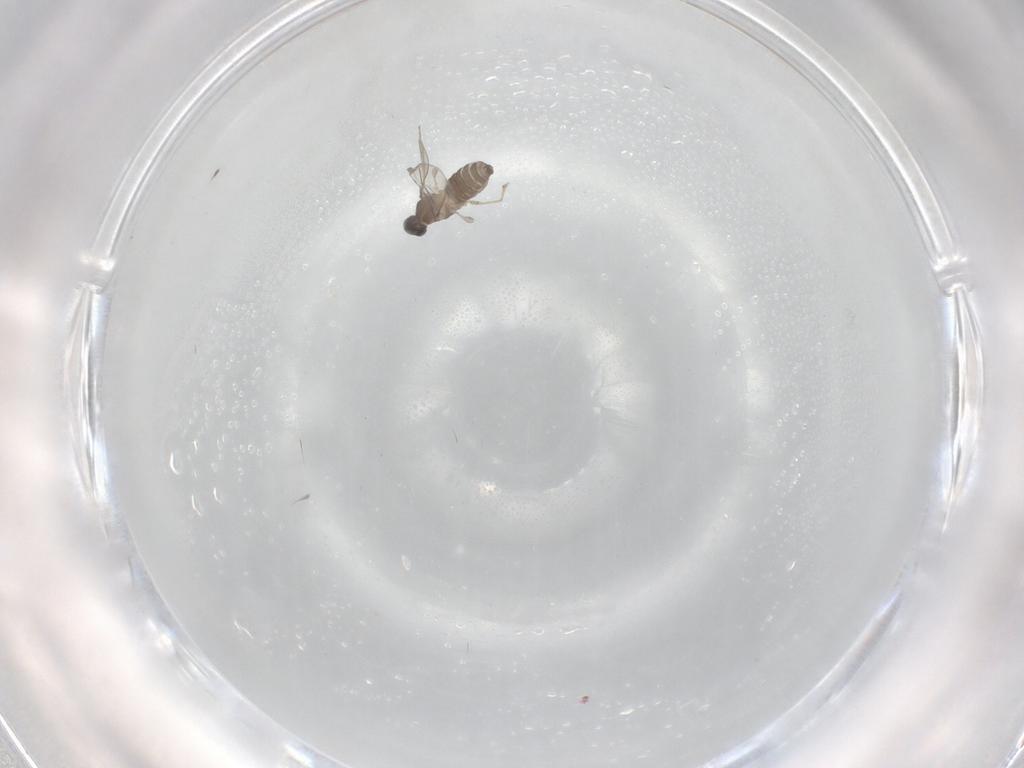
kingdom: Animalia
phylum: Arthropoda
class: Insecta
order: Diptera
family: Cecidomyiidae
